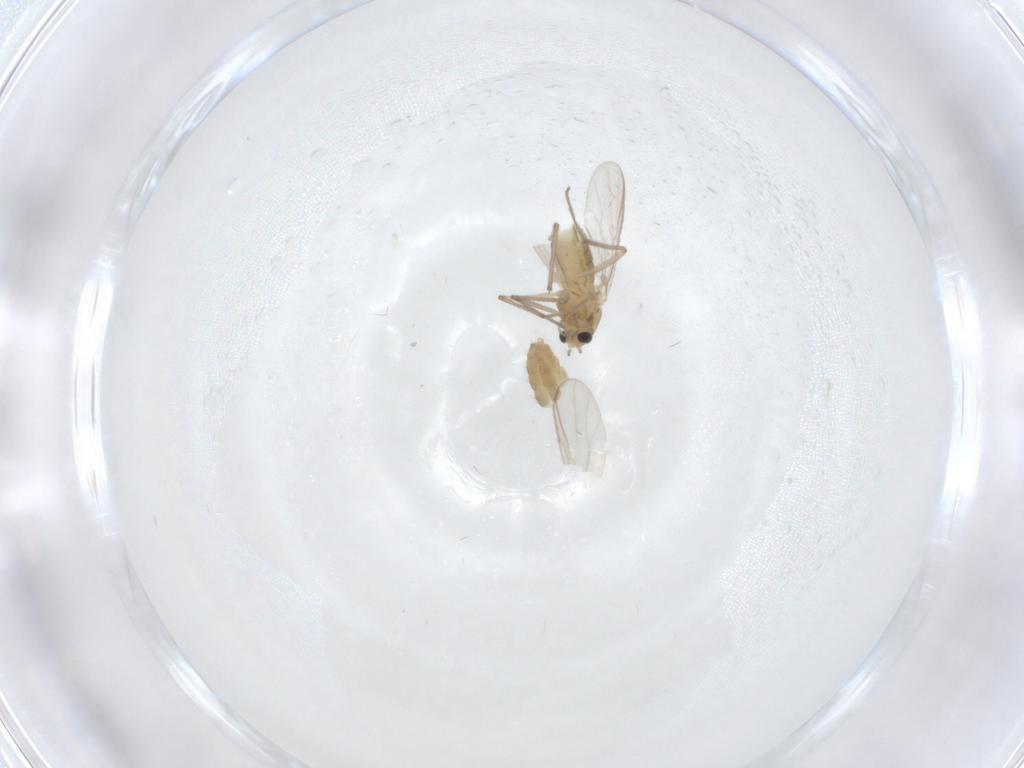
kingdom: Animalia
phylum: Arthropoda
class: Insecta
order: Diptera
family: Chironomidae
